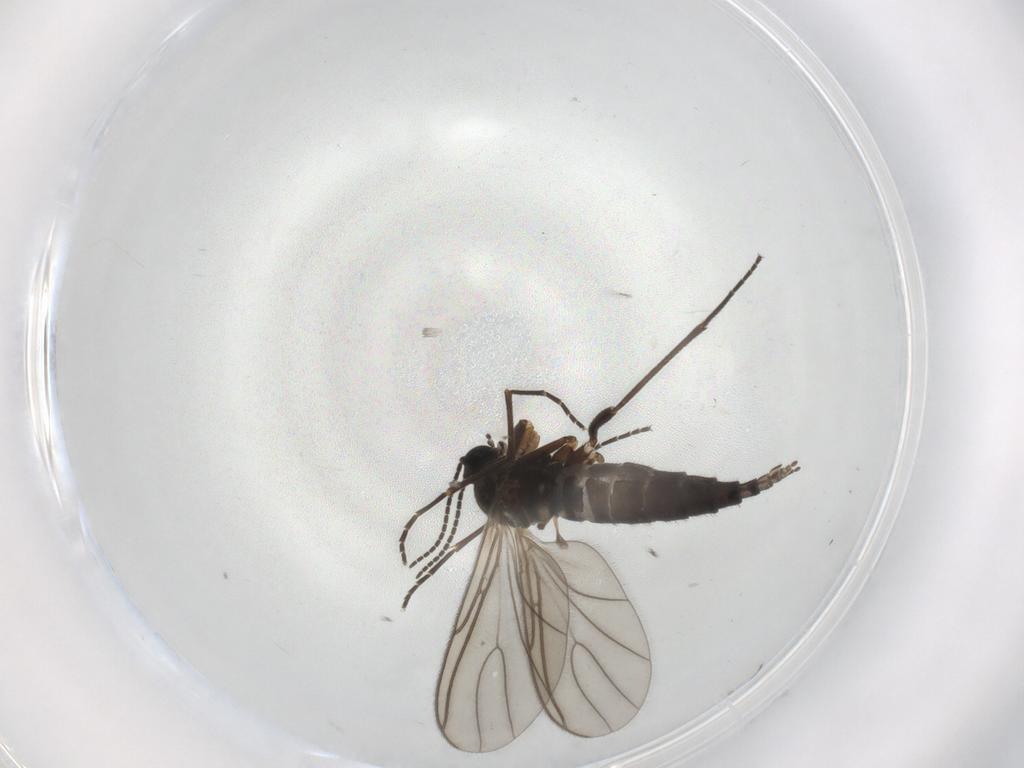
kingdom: Animalia
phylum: Arthropoda
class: Insecta
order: Diptera
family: Sciaridae
